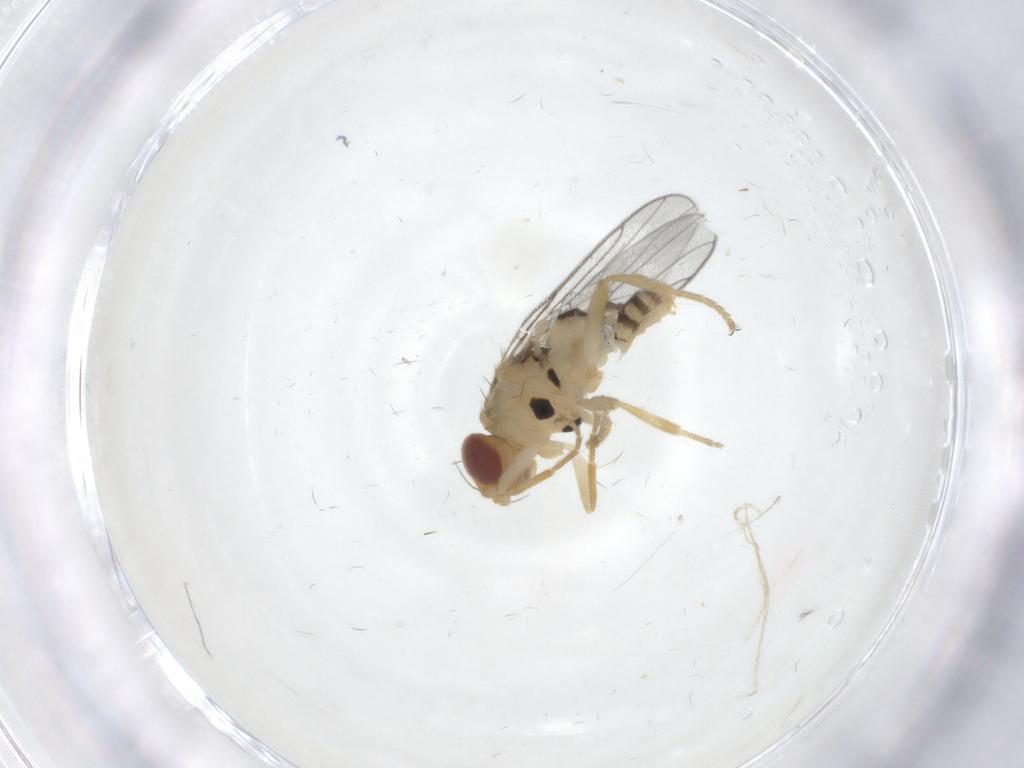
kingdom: Animalia
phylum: Arthropoda
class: Insecta
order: Diptera
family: Chloropidae
